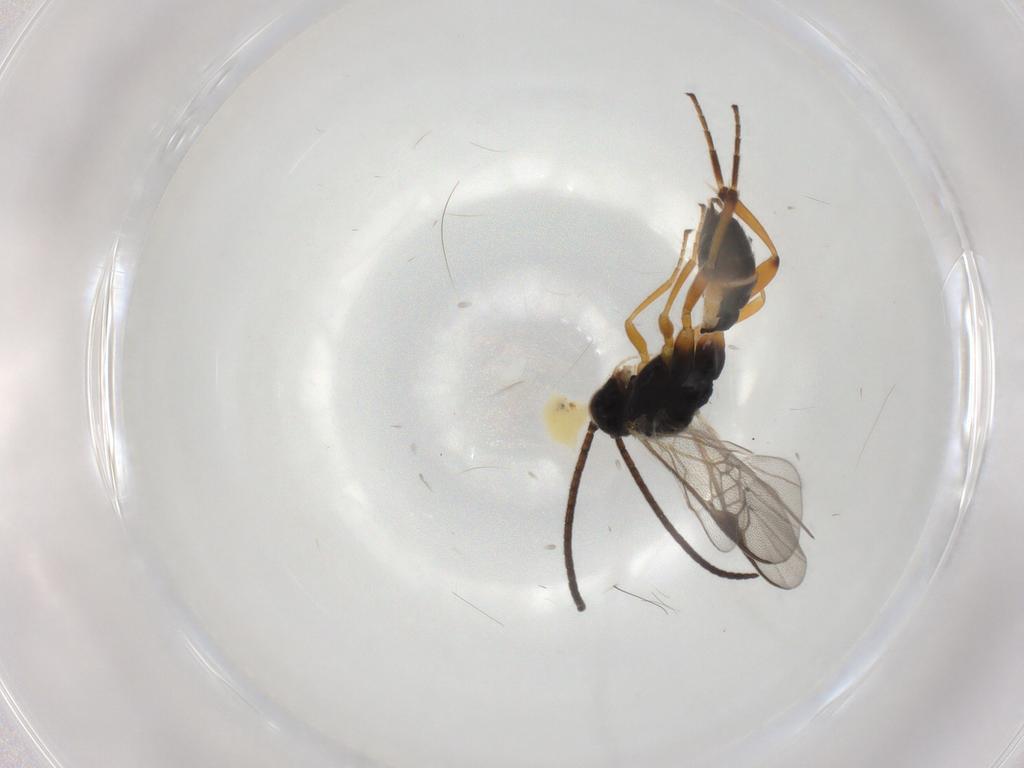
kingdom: Animalia
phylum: Arthropoda
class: Insecta
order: Hymenoptera
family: Braconidae
